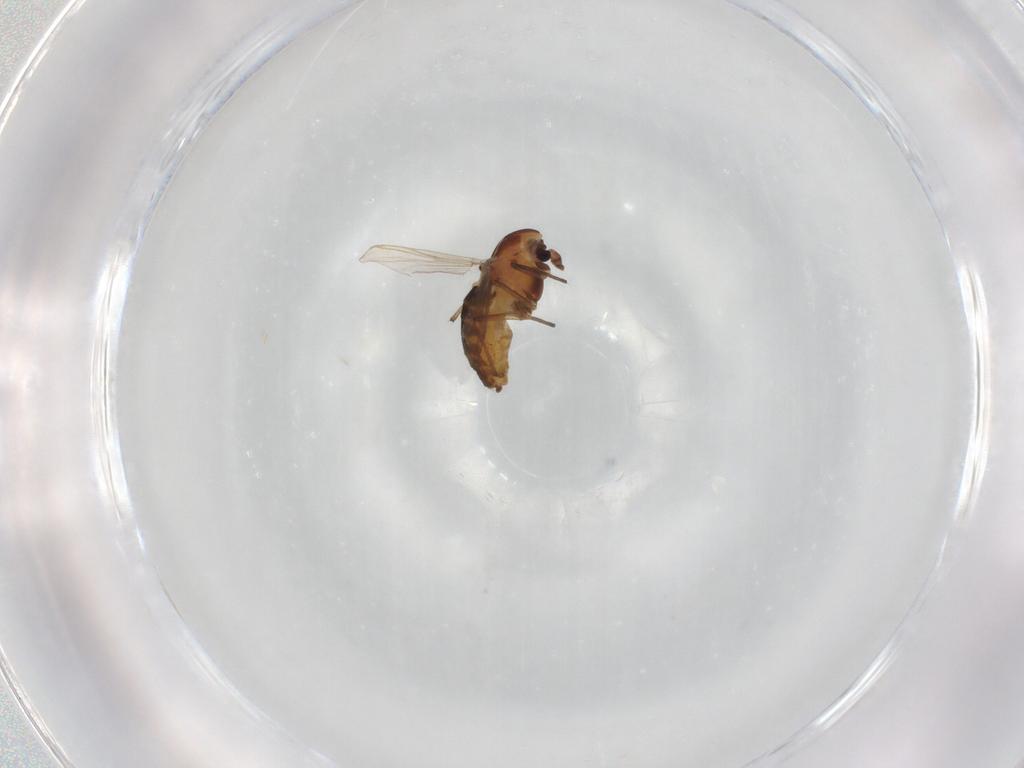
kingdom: Animalia
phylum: Arthropoda
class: Insecta
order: Diptera
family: Chironomidae
